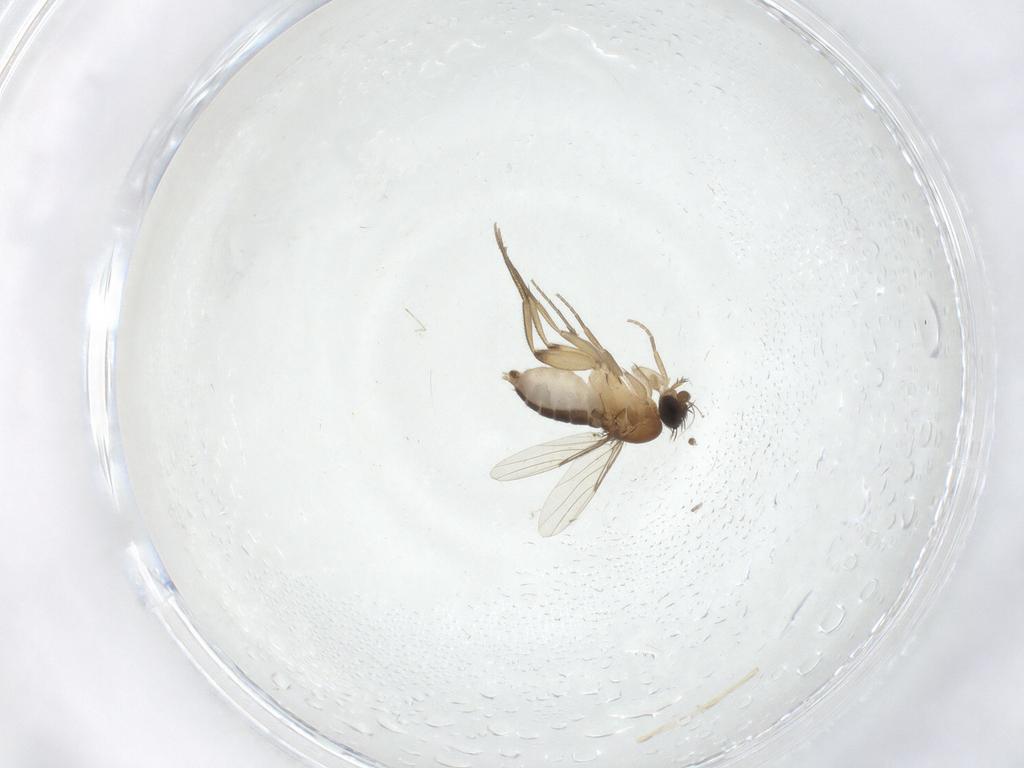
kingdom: Animalia
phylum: Arthropoda
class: Insecta
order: Diptera
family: Phoridae
